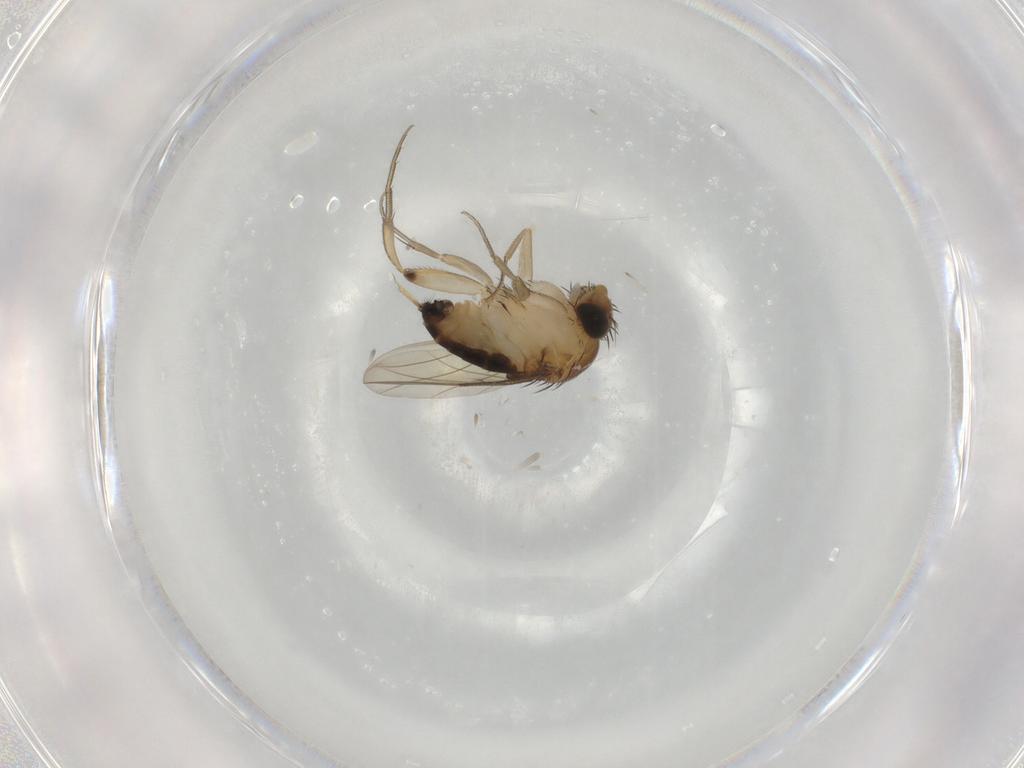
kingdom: Animalia
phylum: Arthropoda
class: Insecta
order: Diptera
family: Phoridae
